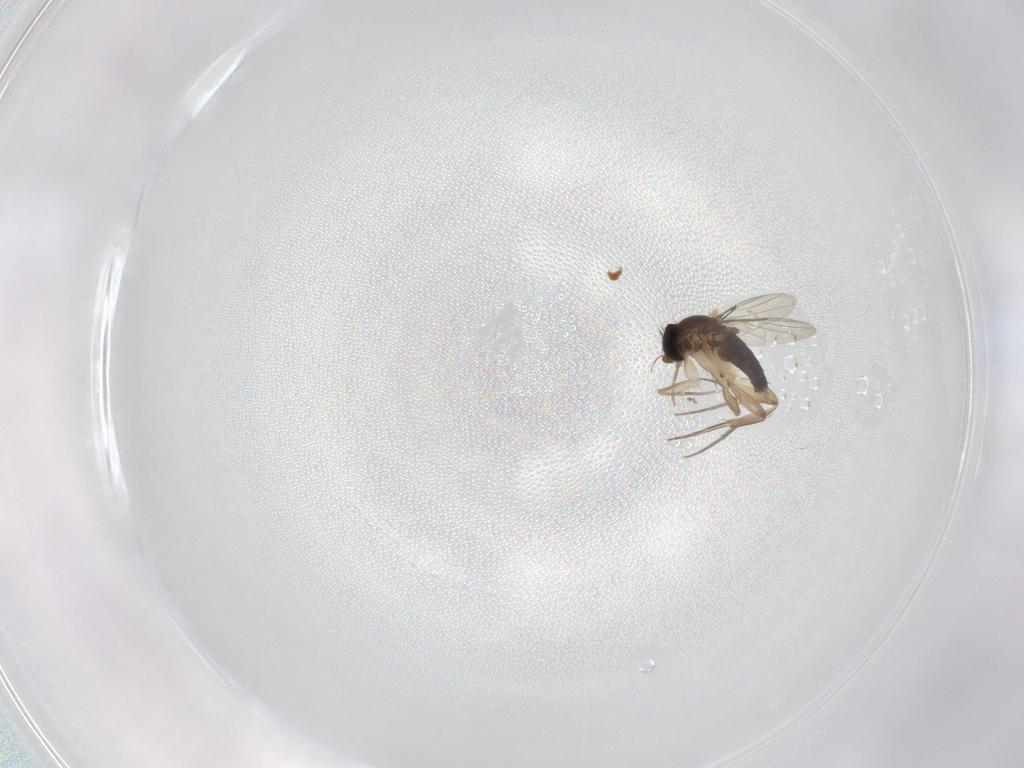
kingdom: Animalia
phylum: Arthropoda
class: Insecta
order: Diptera
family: Phoridae
